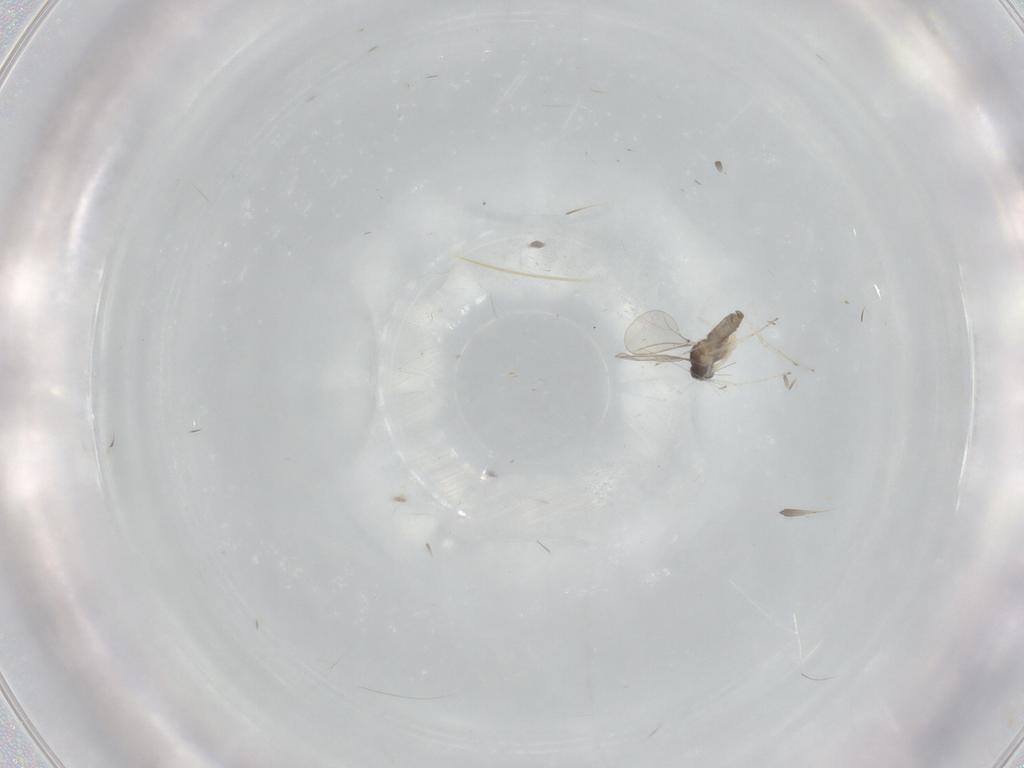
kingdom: Animalia
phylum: Arthropoda
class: Insecta
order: Diptera
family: Cecidomyiidae
